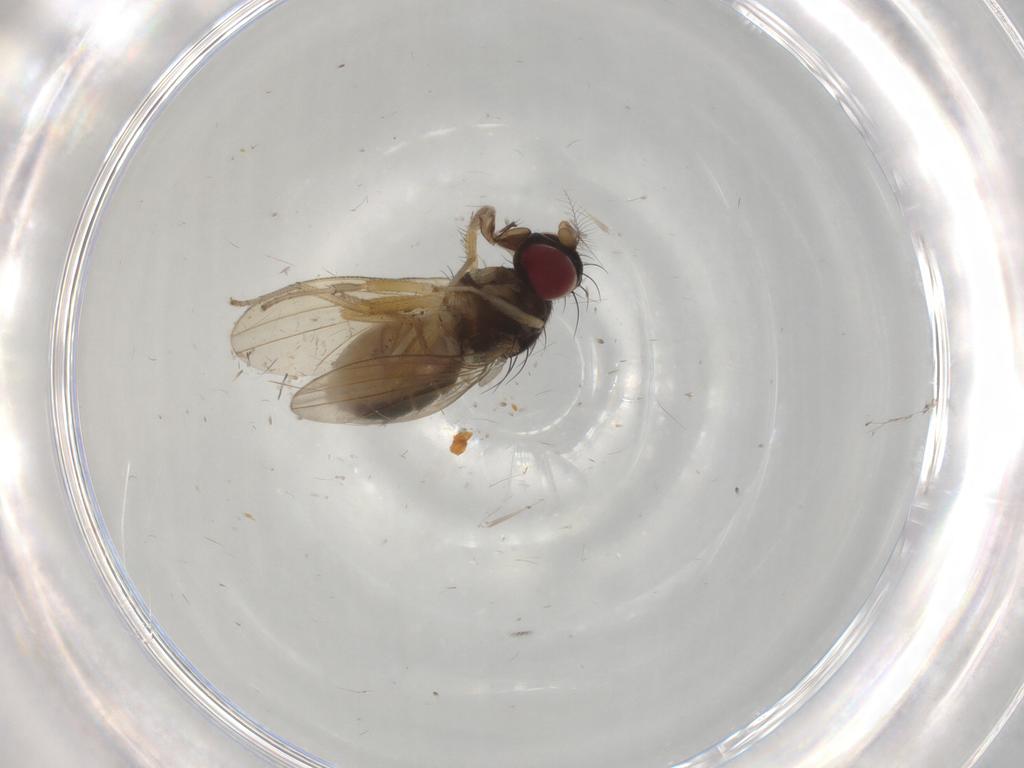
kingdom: Animalia
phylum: Arthropoda
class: Insecta
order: Diptera
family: Lauxaniidae
